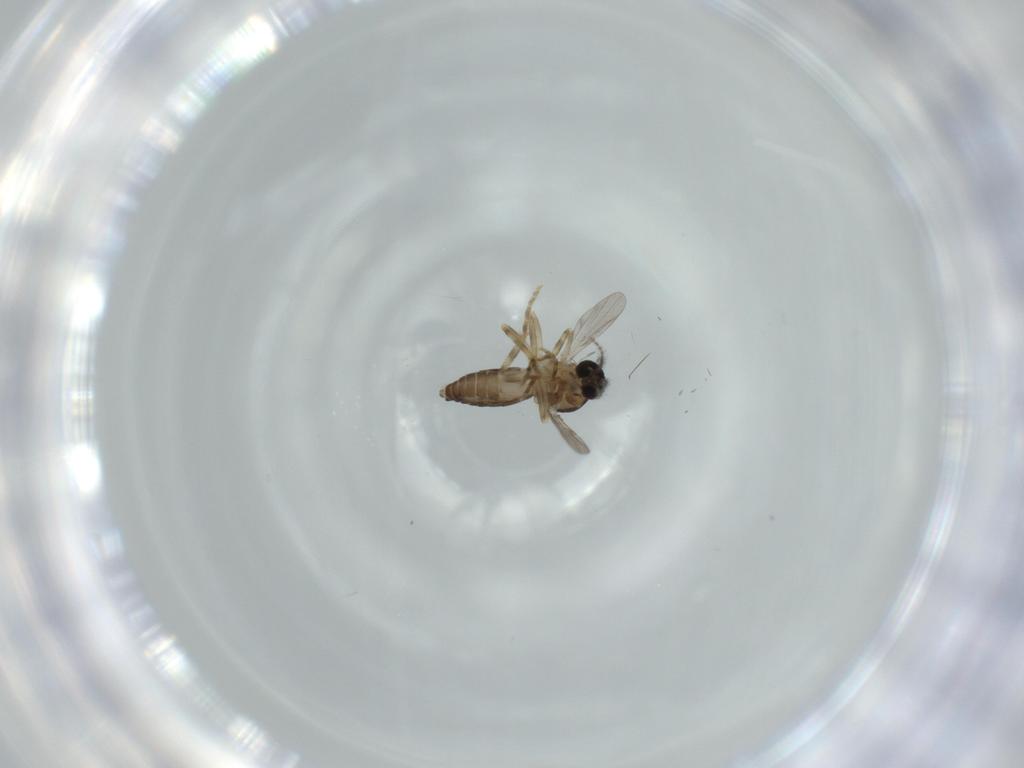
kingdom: Animalia
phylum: Arthropoda
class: Insecta
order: Diptera
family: Ceratopogonidae
